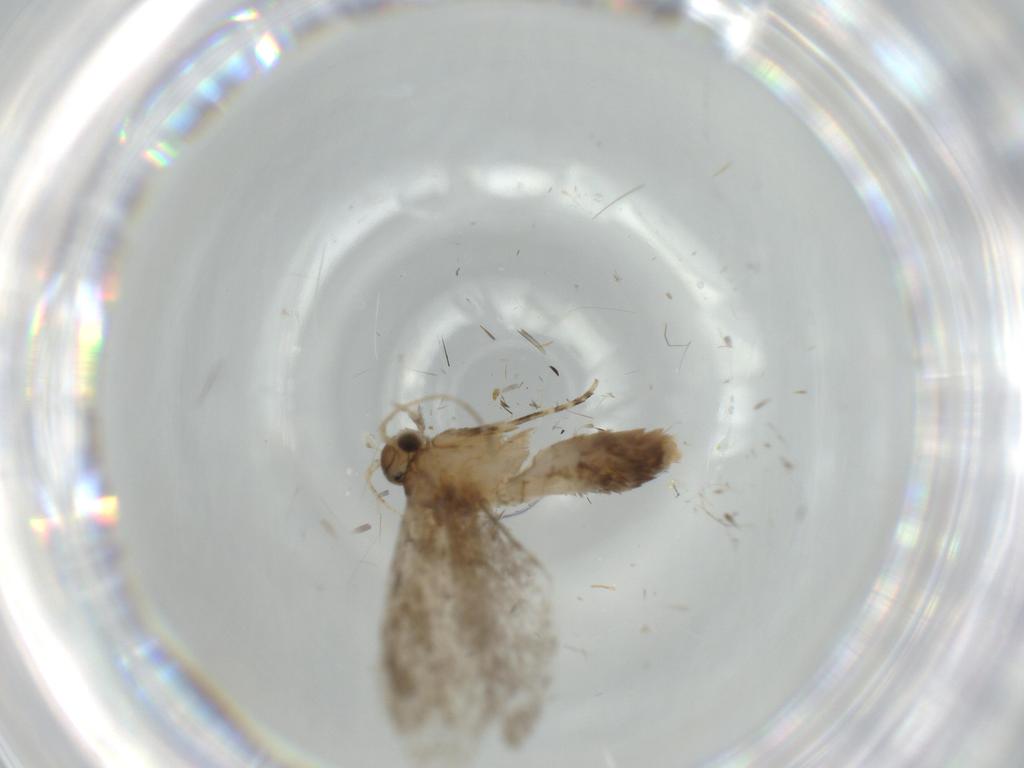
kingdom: Animalia
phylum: Arthropoda
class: Insecta
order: Lepidoptera
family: Tineidae
